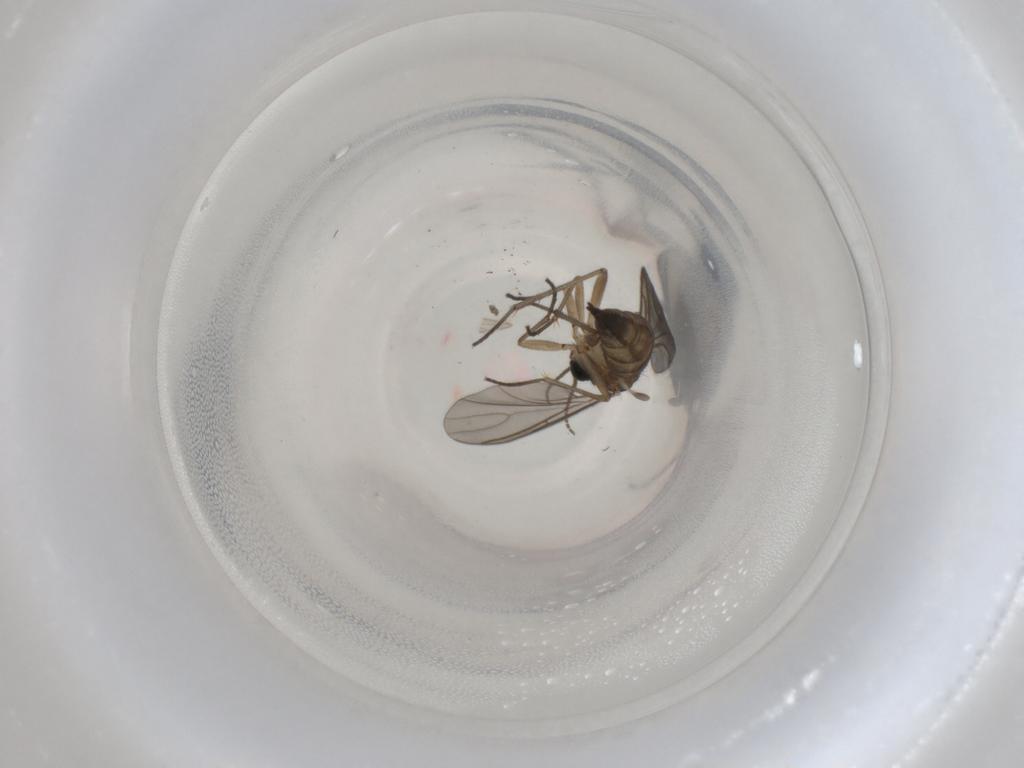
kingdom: Animalia
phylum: Arthropoda
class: Insecta
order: Diptera
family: Sciaridae
